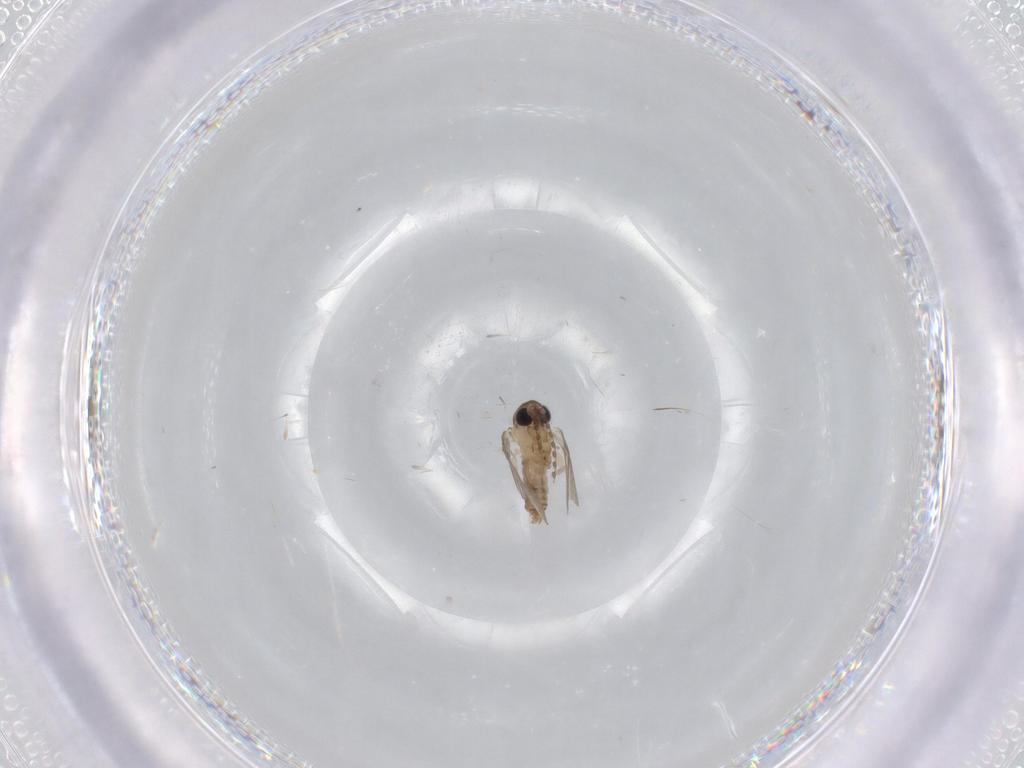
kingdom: Animalia
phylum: Arthropoda
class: Insecta
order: Diptera
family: Psychodidae
